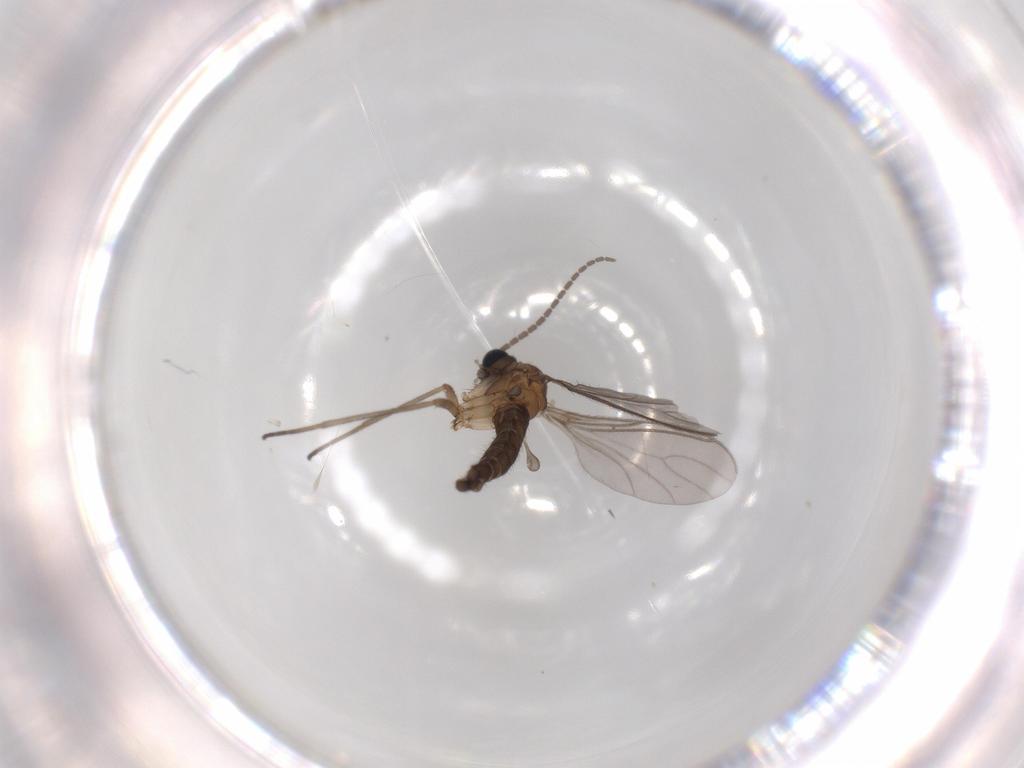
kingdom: Animalia
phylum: Arthropoda
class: Insecta
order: Diptera
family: Sciaridae
